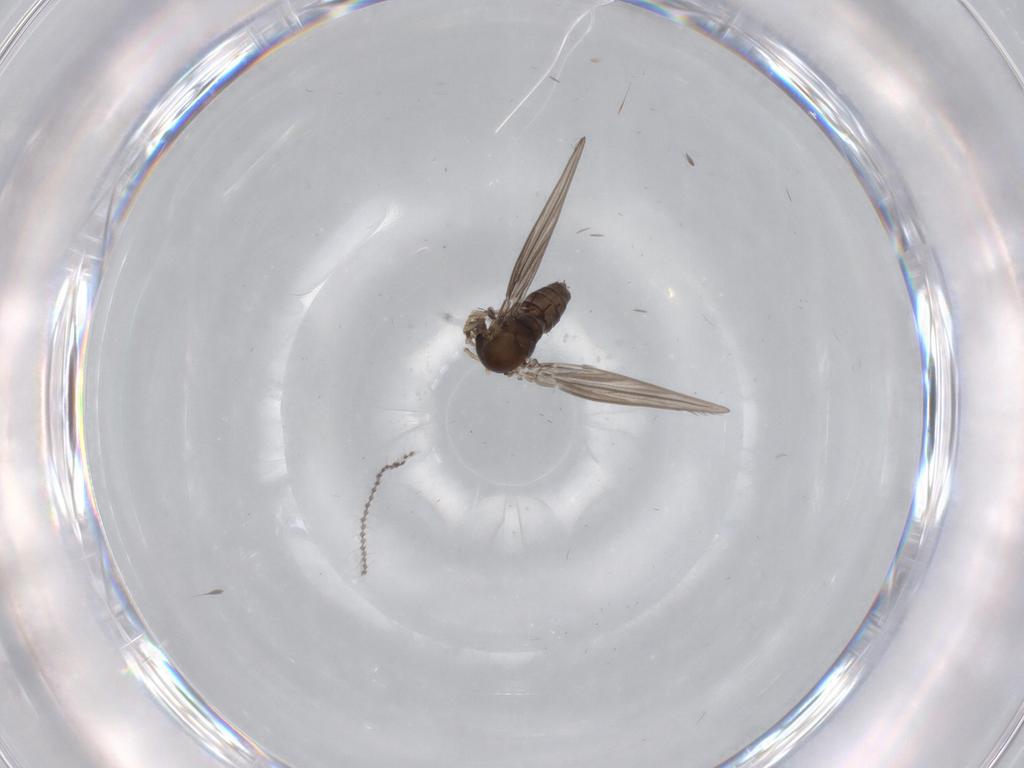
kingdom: Animalia
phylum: Arthropoda
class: Insecta
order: Diptera
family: Psychodidae
